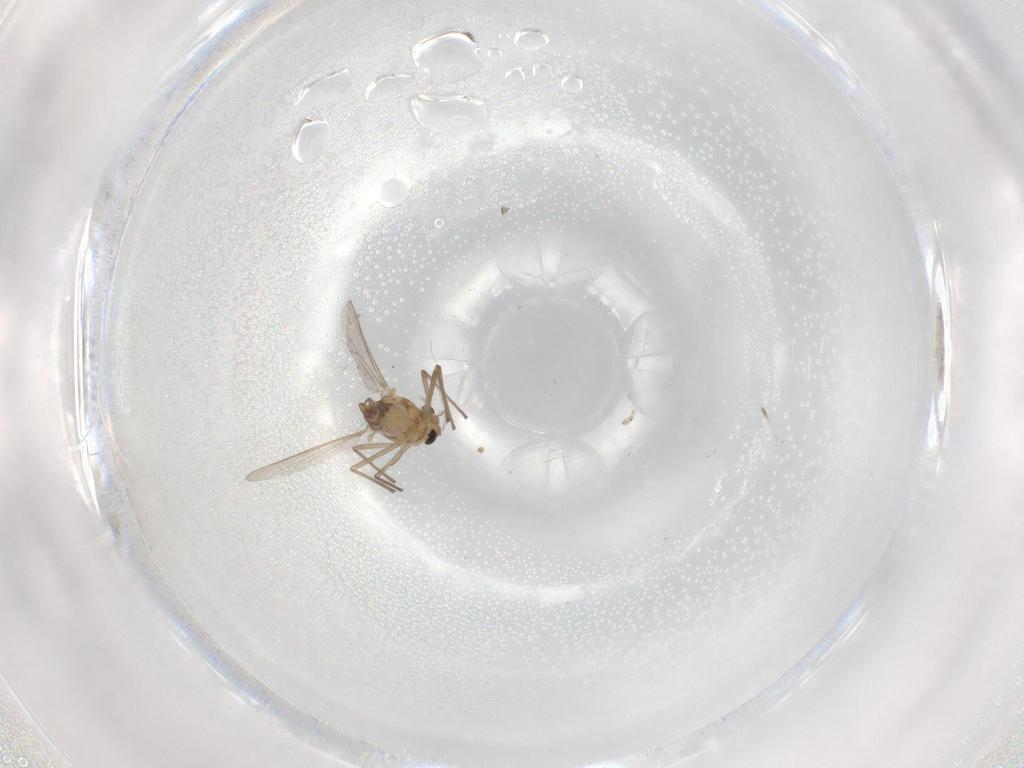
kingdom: Animalia
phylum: Arthropoda
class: Insecta
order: Diptera
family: Chironomidae
